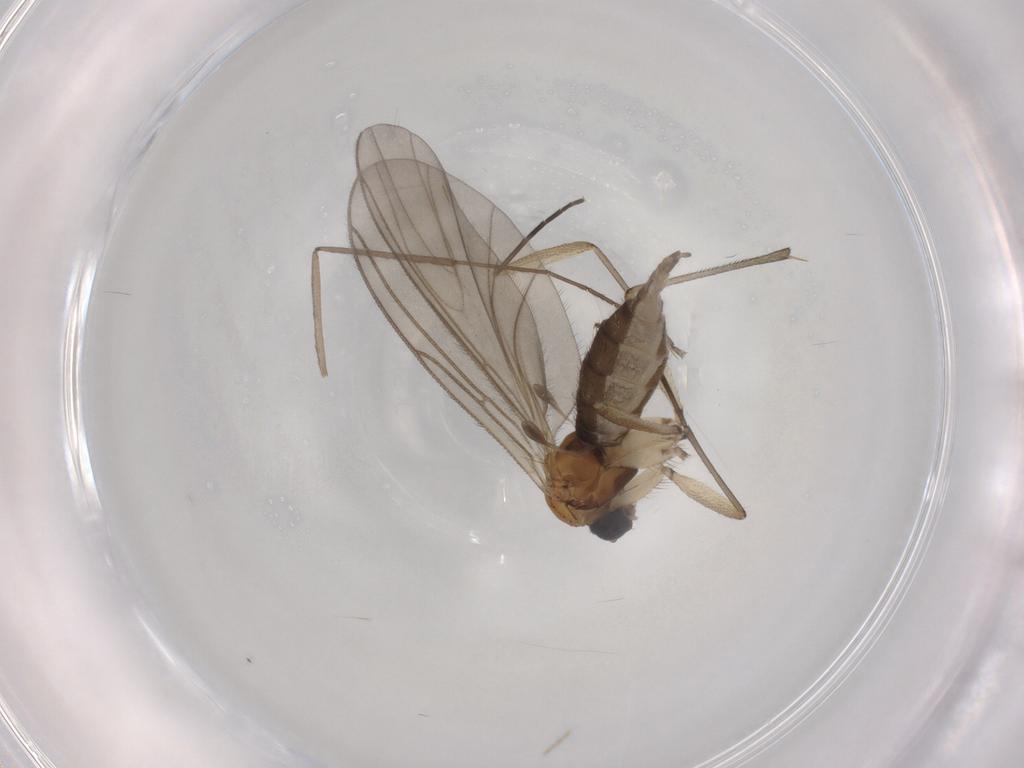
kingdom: Animalia
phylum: Arthropoda
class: Insecta
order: Diptera
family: Sciaridae
